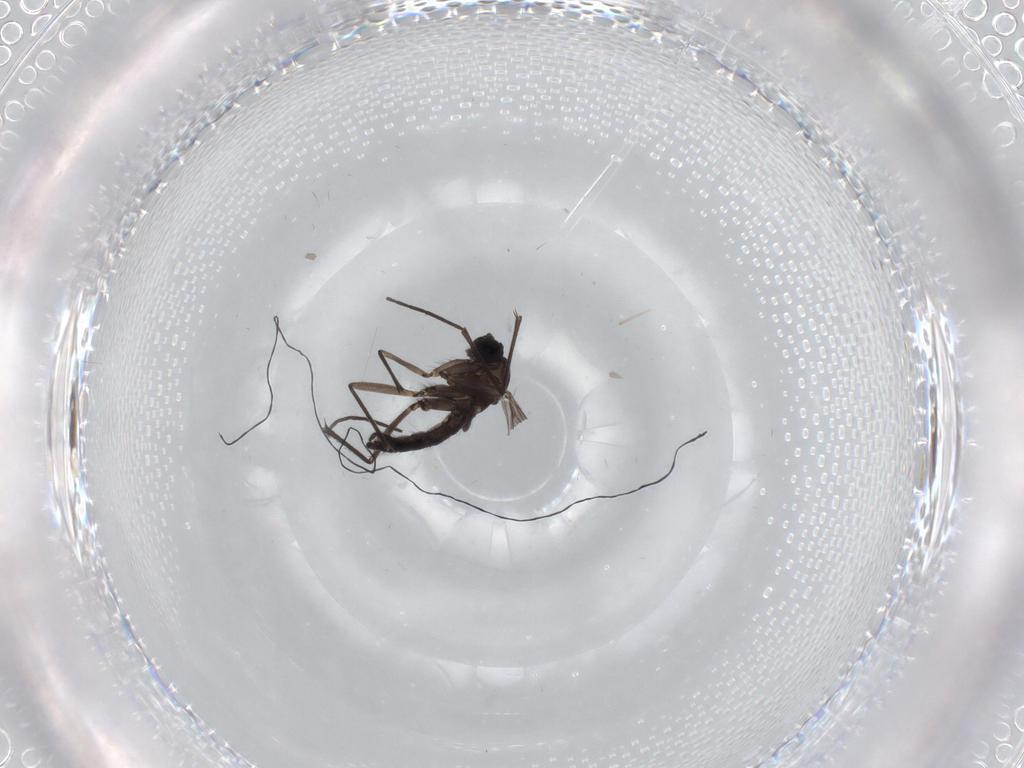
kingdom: Animalia
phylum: Arthropoda
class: Insecta
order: Diptera
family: Sciaridae
